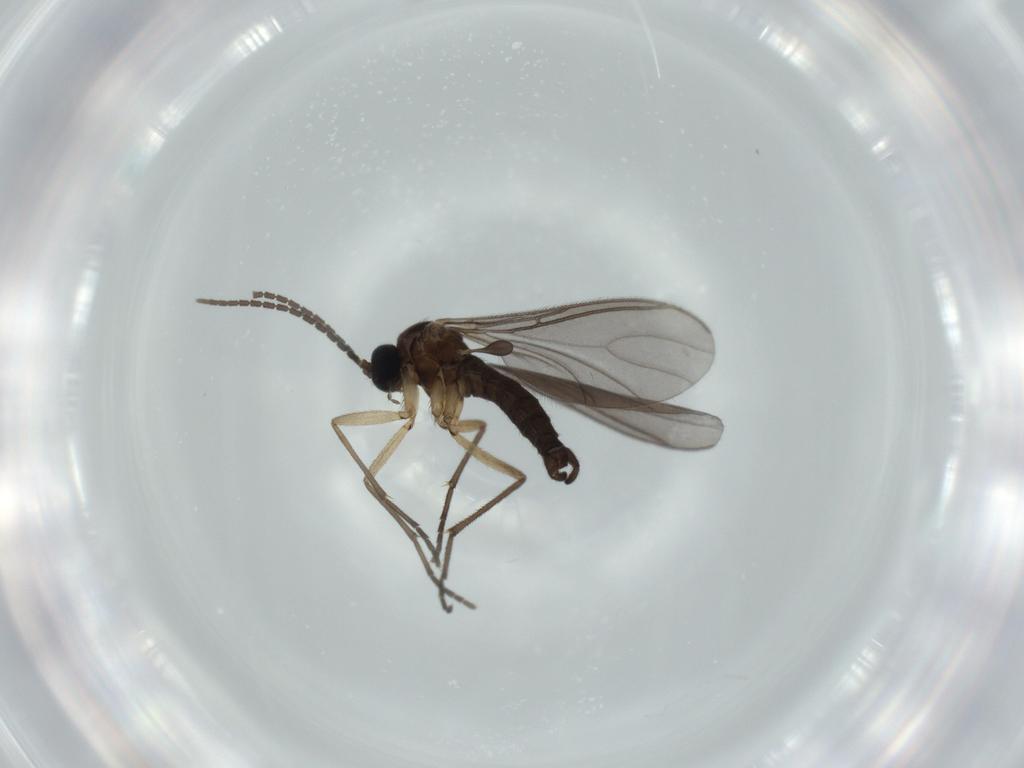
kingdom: Animalia
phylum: Arthropoda
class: Insecta
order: Diptera
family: Sciaridae
